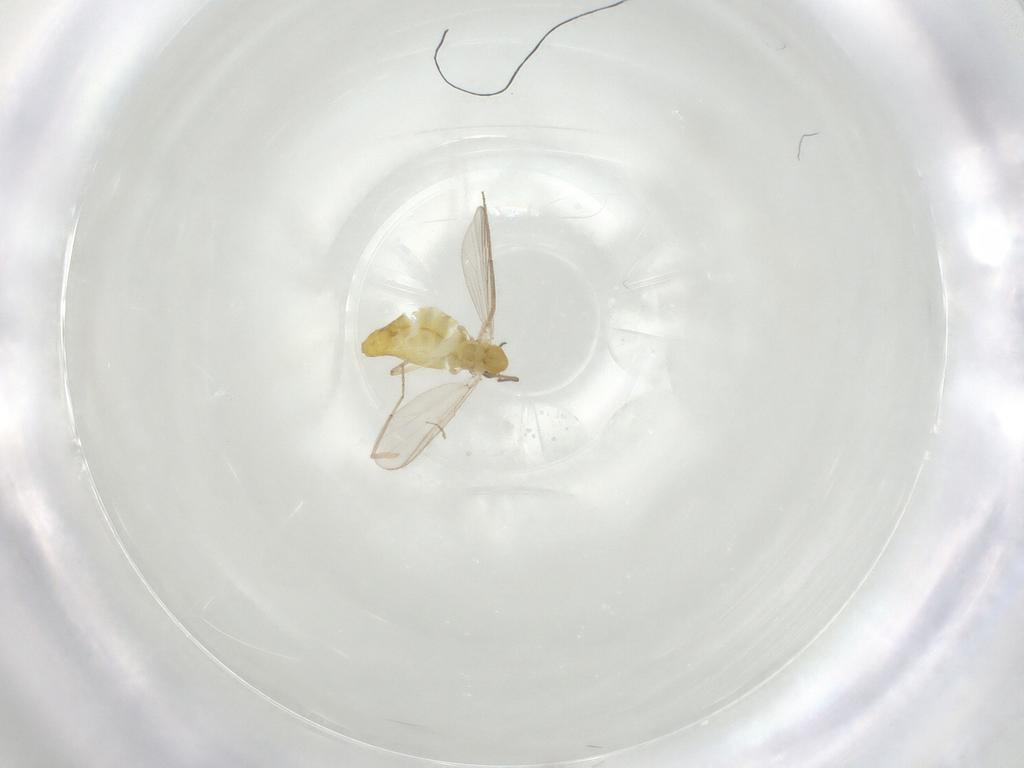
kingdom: Animalia
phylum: Arthropoda
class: Insecta
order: Diptera
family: Chironomidae
